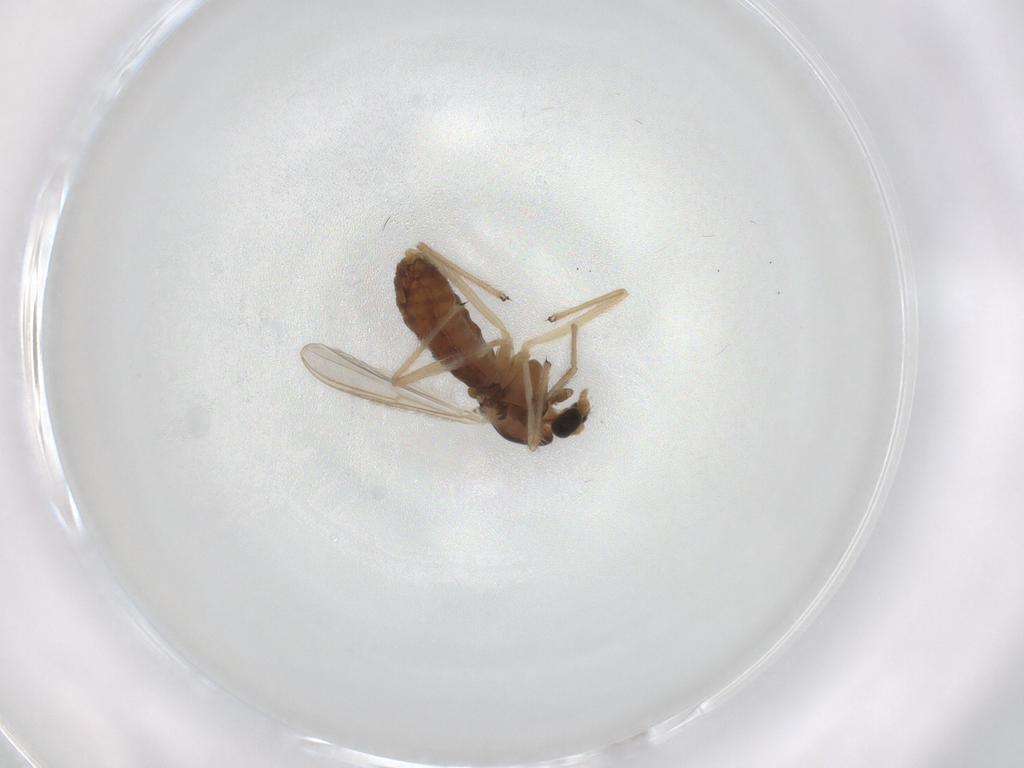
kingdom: Animalia
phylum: Arthropoda
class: Insecta
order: Diptera
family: Chironomidae
